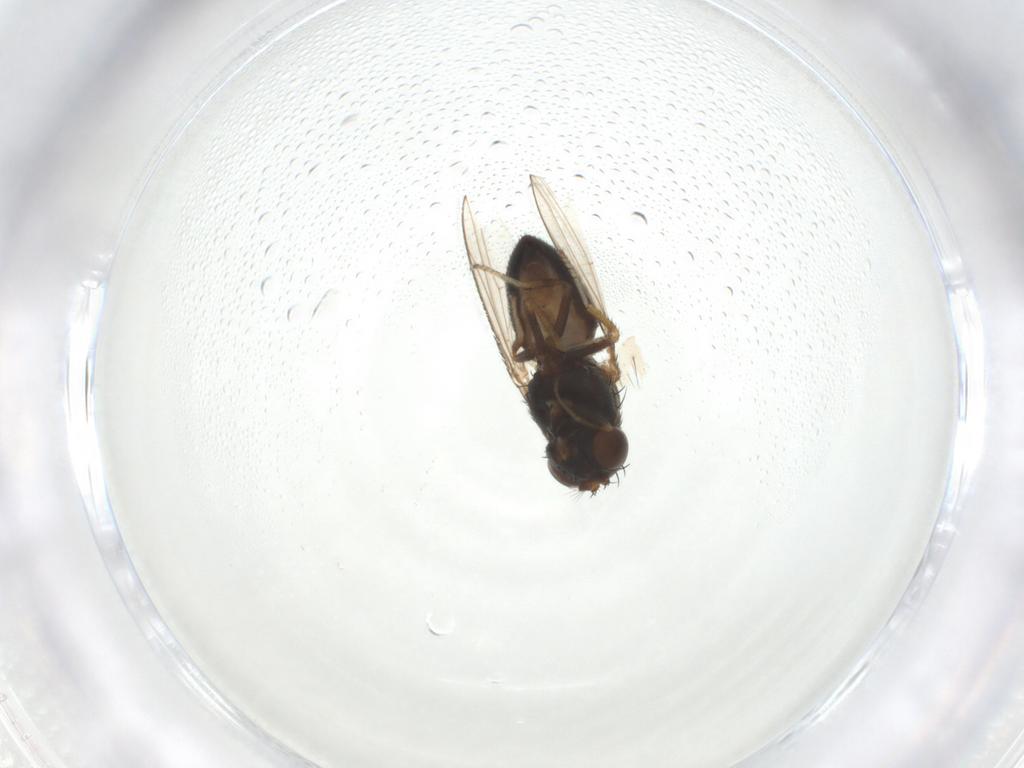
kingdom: Animalia
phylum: Arthropoda
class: Insecta
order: Diptera
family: Ephydridae
